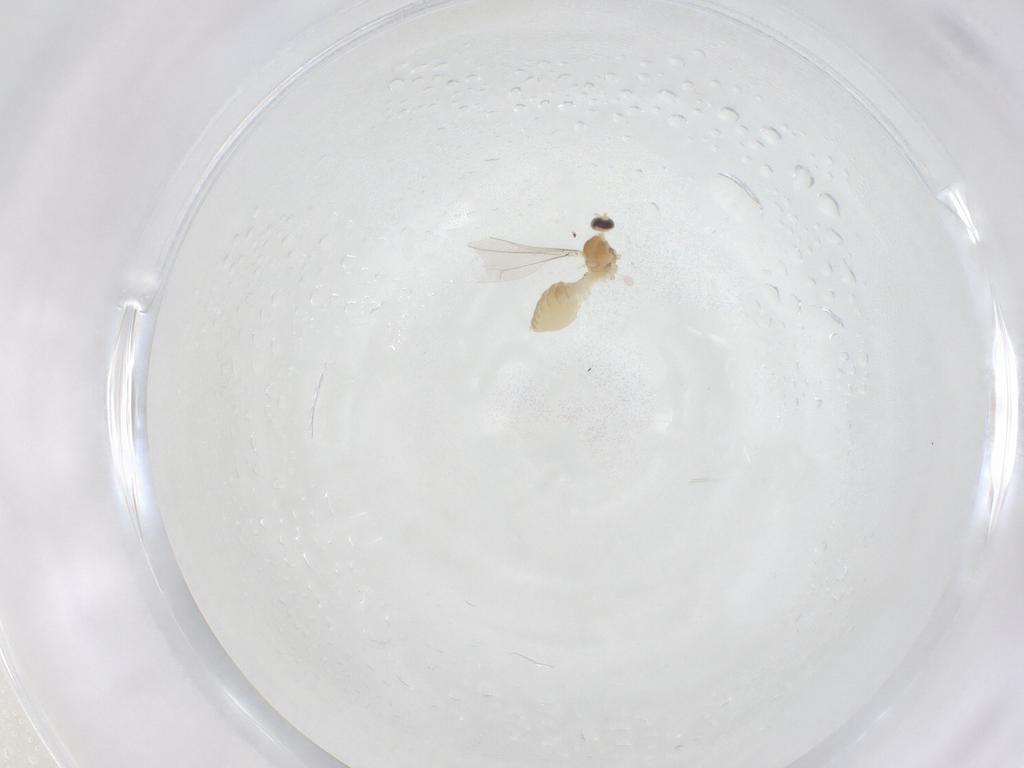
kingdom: Animalia
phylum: Arthropoda
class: Insecta
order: Diptera
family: Cecidomyiidae
